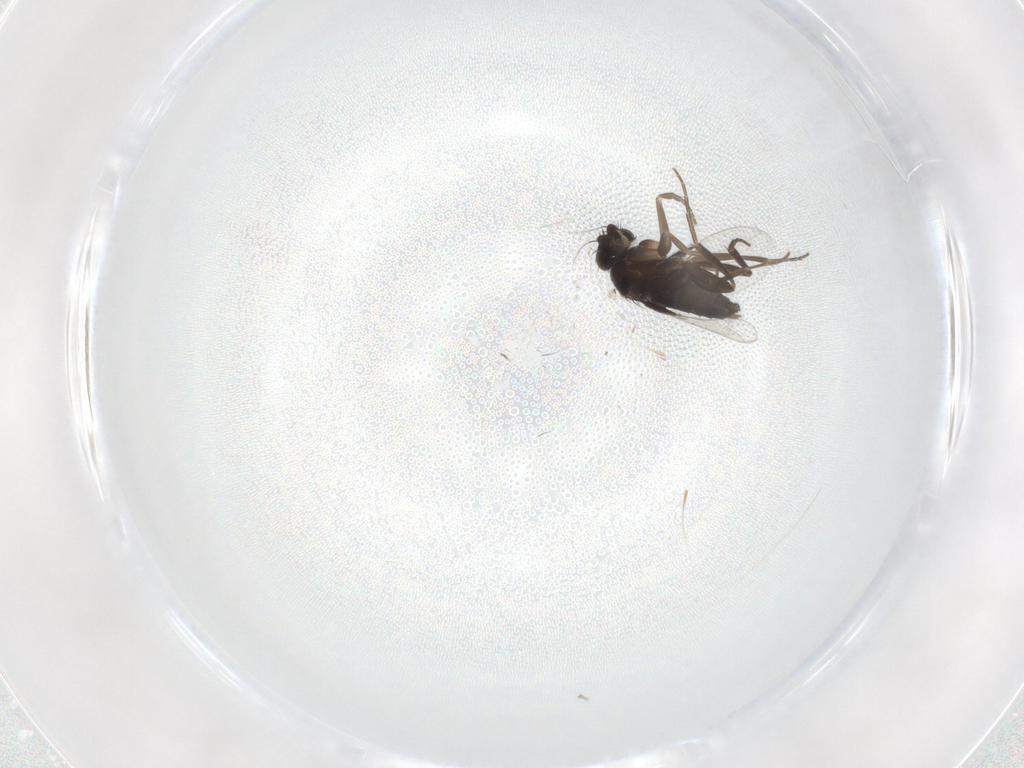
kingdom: Animalia
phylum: Arthropoda
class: Insecta
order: Diptera
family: Phoridae
